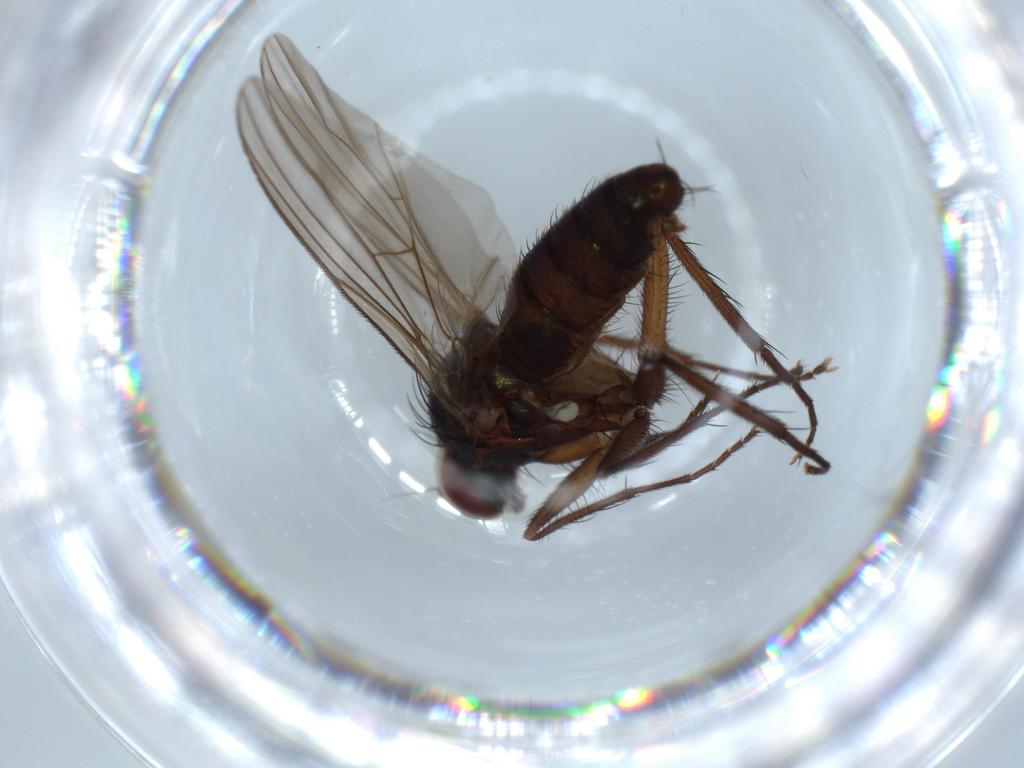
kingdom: Animalia
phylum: Arthropoda
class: Insecta
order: Diptera
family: Dolichopodidae
